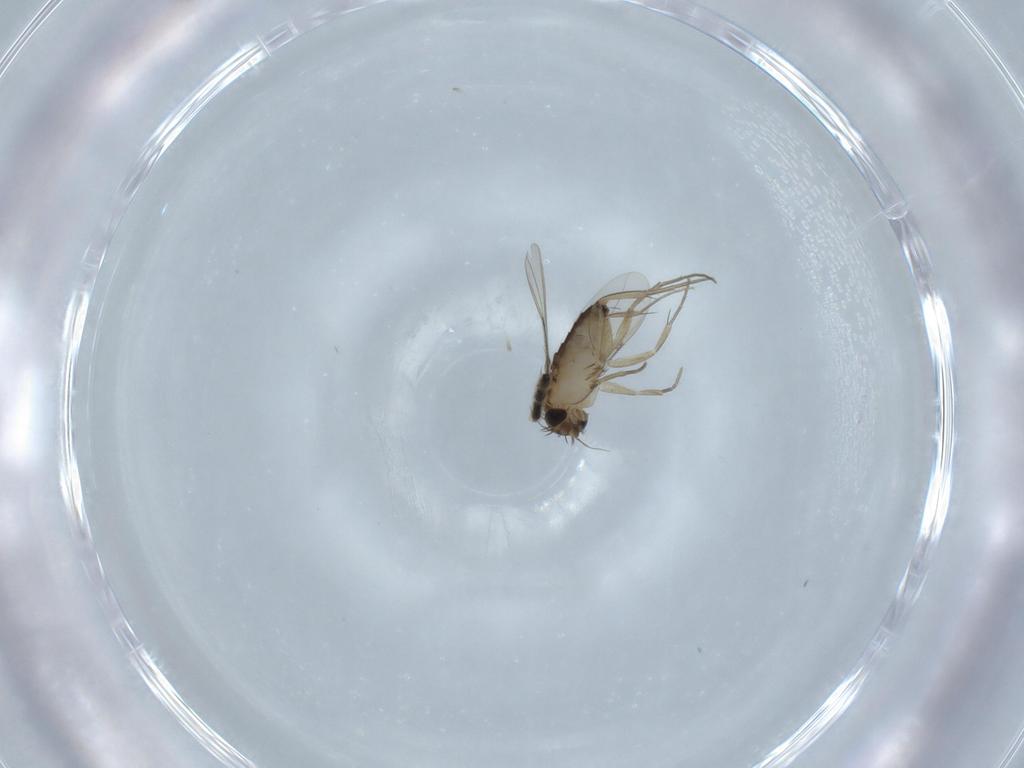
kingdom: Animalia
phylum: Arthropoda
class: Insecta
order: Diptera
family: Phoridae
